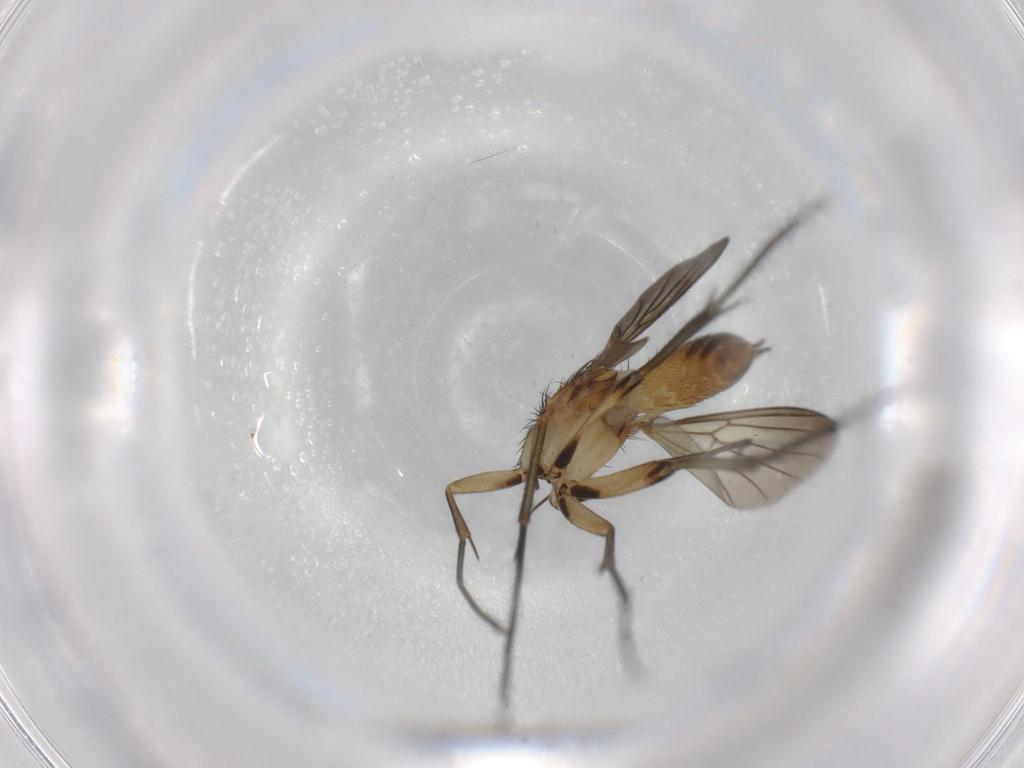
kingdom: Animalia
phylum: Arthropoda
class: Insecta
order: Diptera
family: Mycetophilidae
